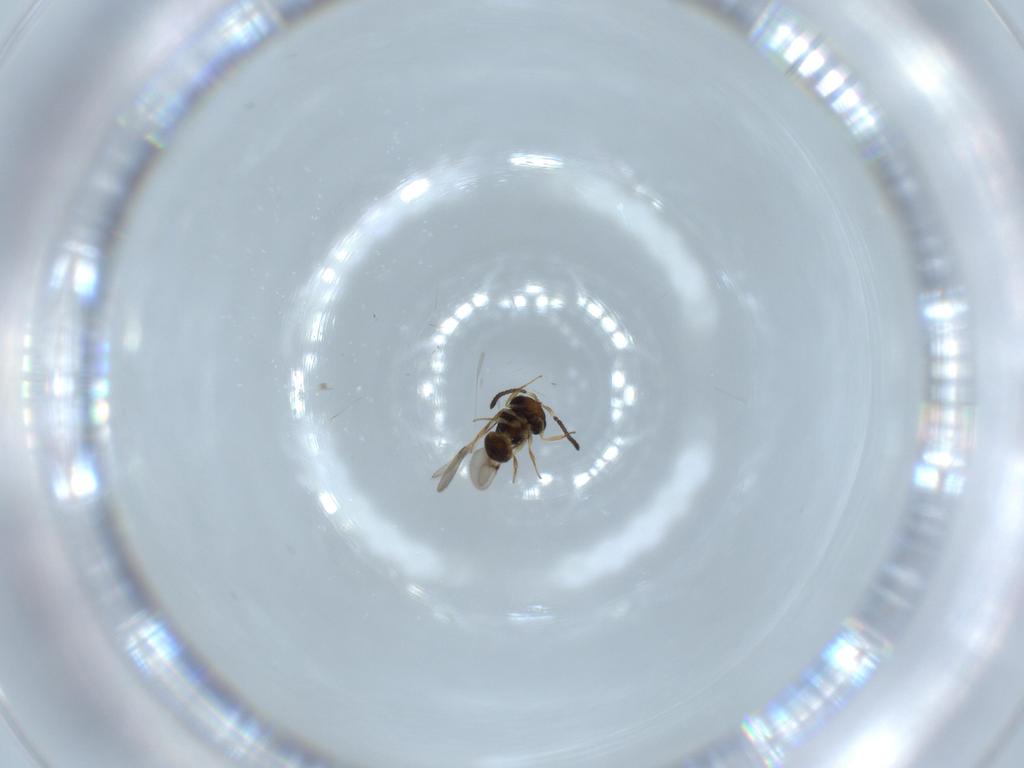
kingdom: Animalia
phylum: Arthropoda
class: Arachnida
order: Araneae
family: Pholcidae
